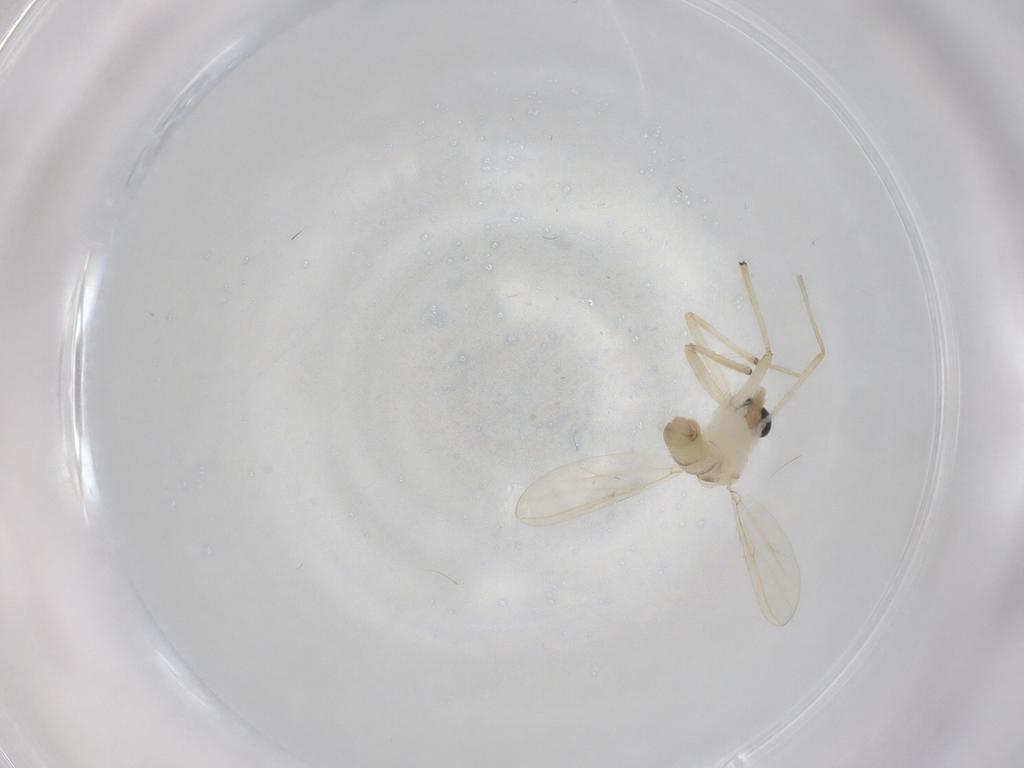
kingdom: Animalia
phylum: Arthropoda
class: Insecta
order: Diptera
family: Chironomidae
